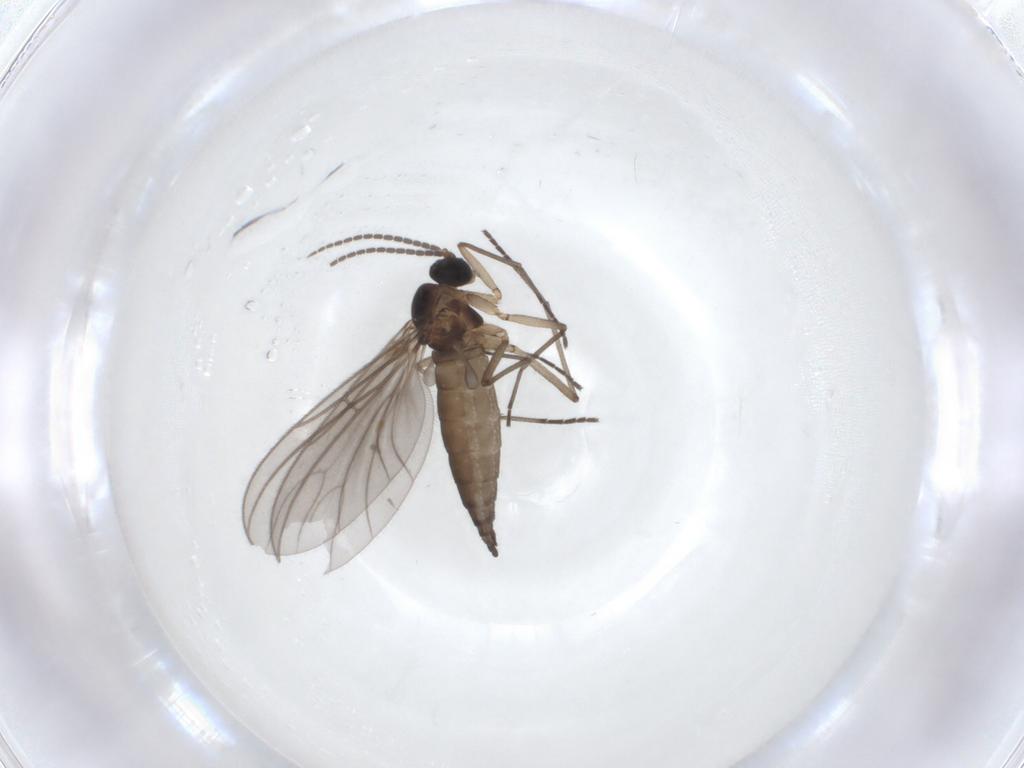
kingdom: Animalia
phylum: Arthropoda
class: Insecta
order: Diptera
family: Sciaridae
